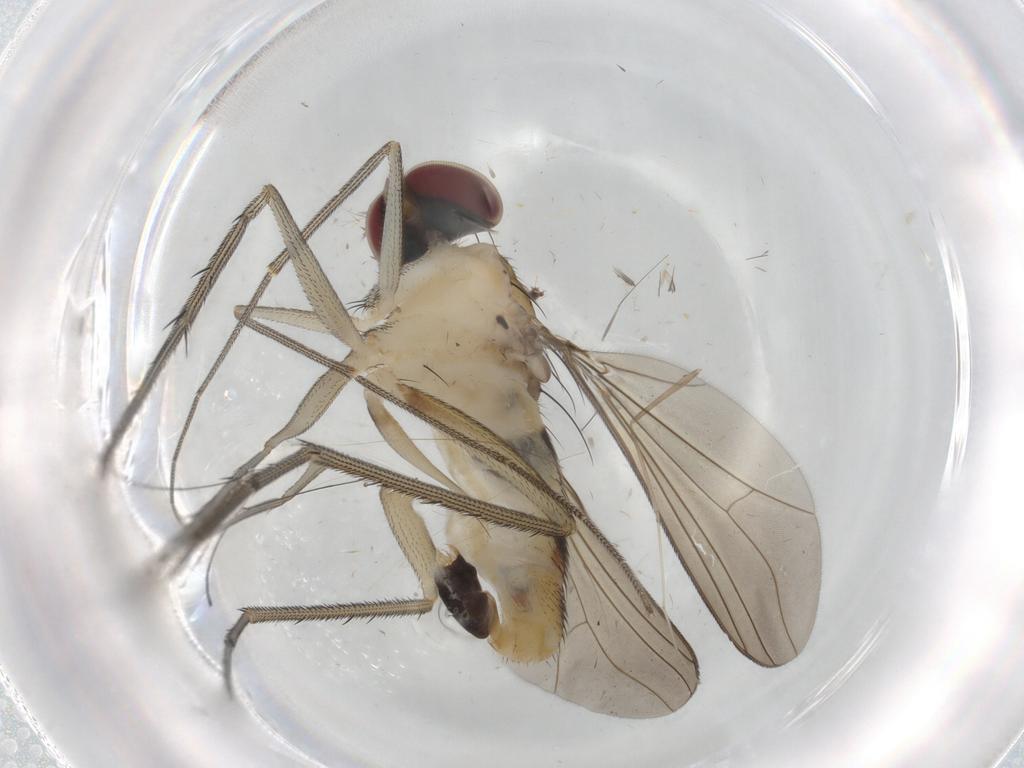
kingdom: Animalia
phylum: Arthropoda
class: Insecta
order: Diptera
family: Dolichopodidae
